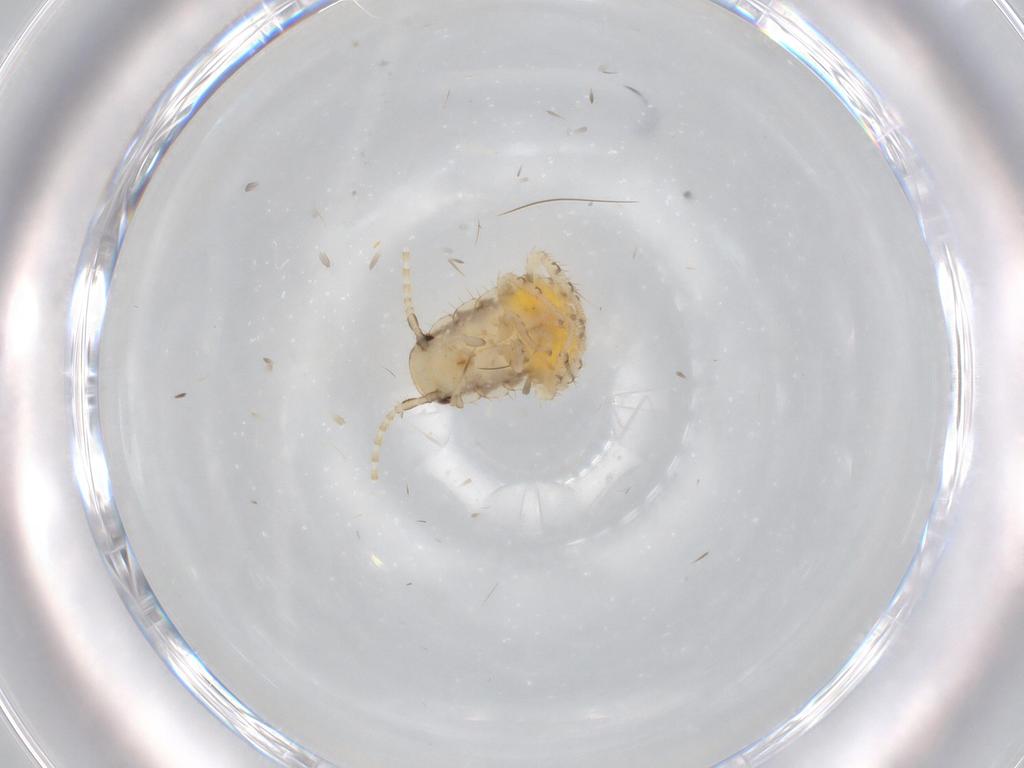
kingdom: Animalia
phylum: Arthropoda
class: Insecta
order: Blattodea
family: Ectobiidae
